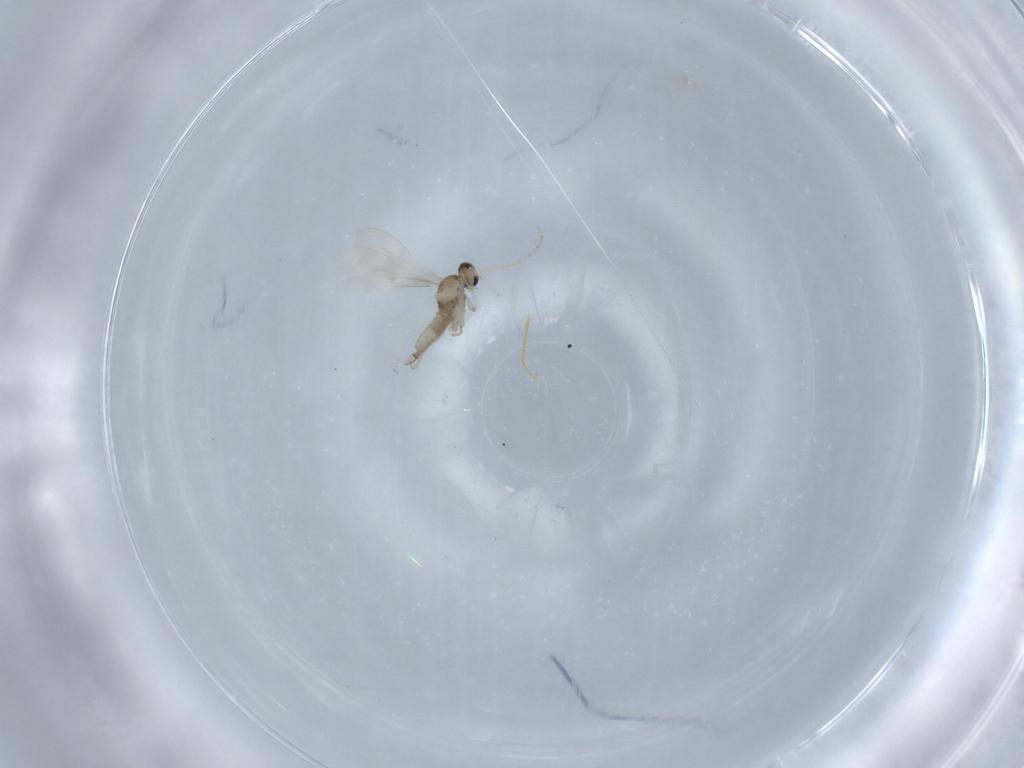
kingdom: Animalia
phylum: Arthropoda
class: Insecta
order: Diptera
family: Cecidomyiidae
